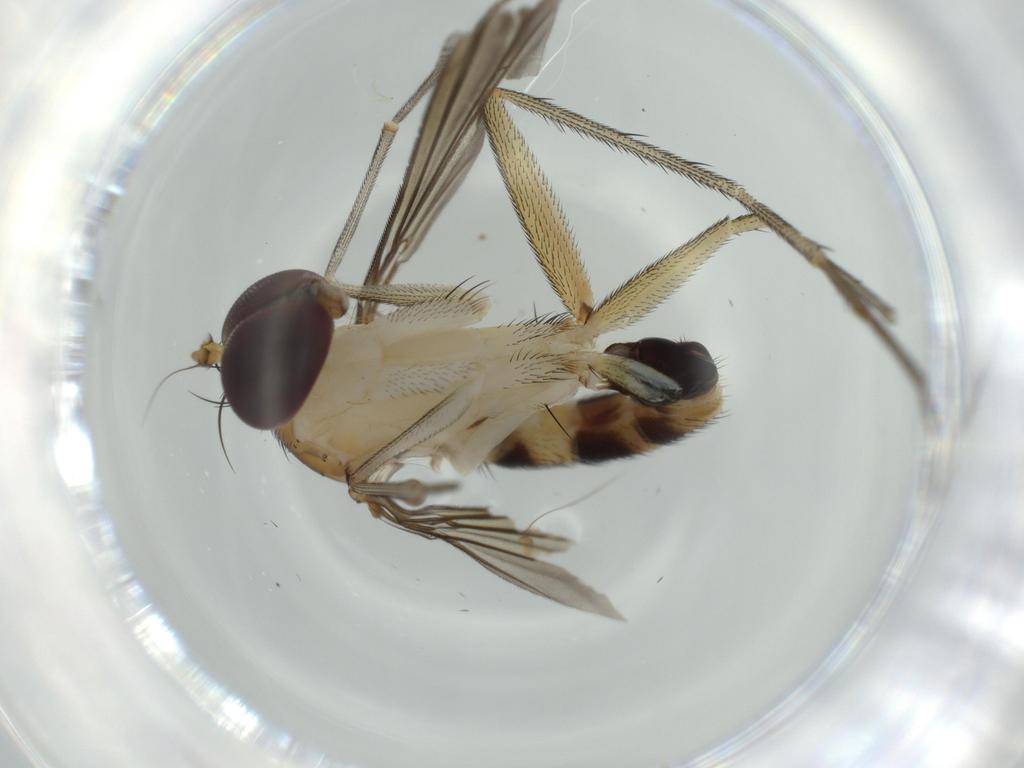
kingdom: Animalia
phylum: Arthropoda
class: Insecta
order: Diptera
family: Dolichopodidae
